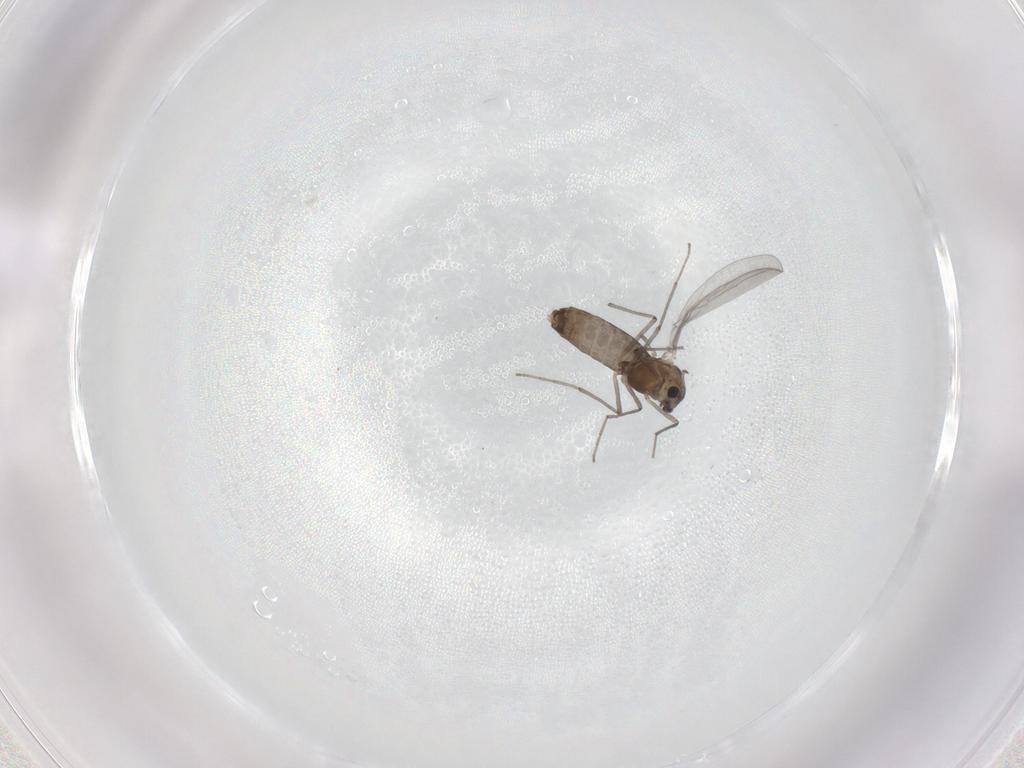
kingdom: Animalia
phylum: Arthropoda
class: Insecta
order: Diptera
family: Chironomidae
